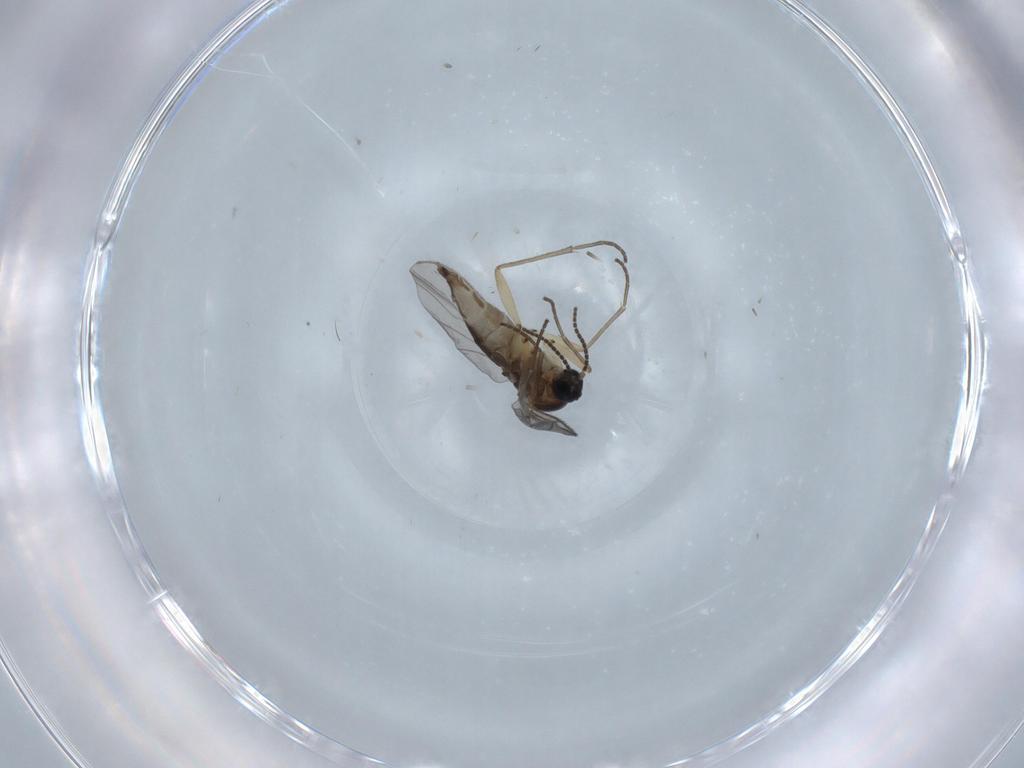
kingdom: Animalia
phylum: Arthropoda
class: Insecta
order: Diptera
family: Sciaridae
